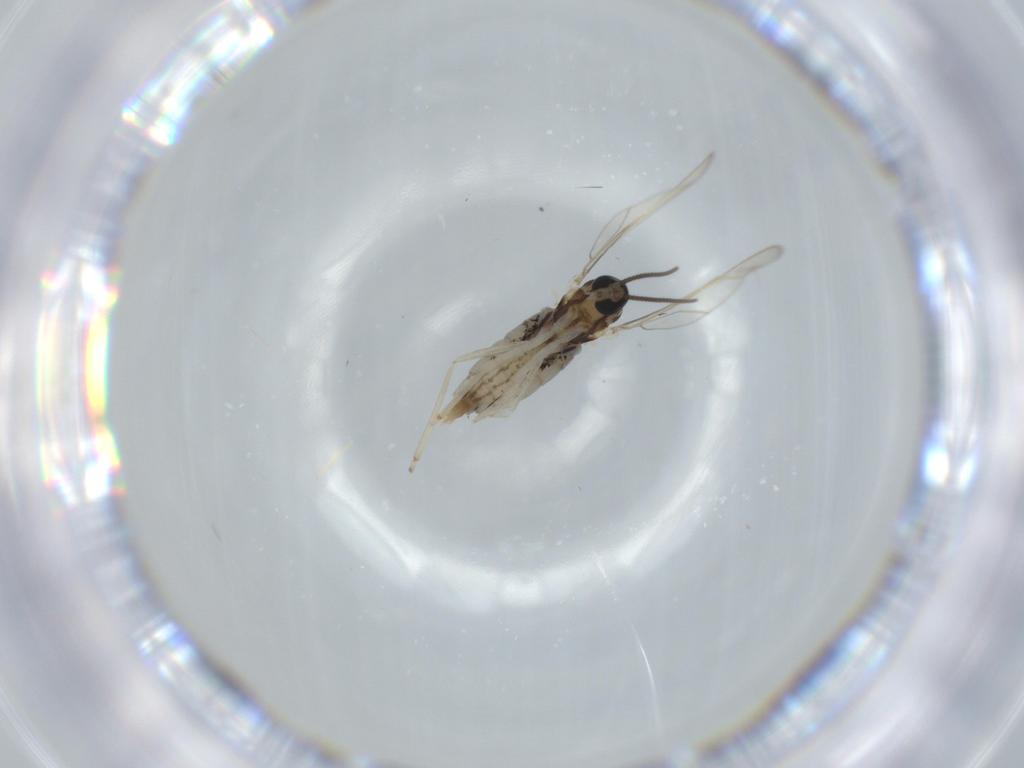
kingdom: Animalia
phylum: Arthropoda
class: Insecta
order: Diptera
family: Cecidomyiidae
